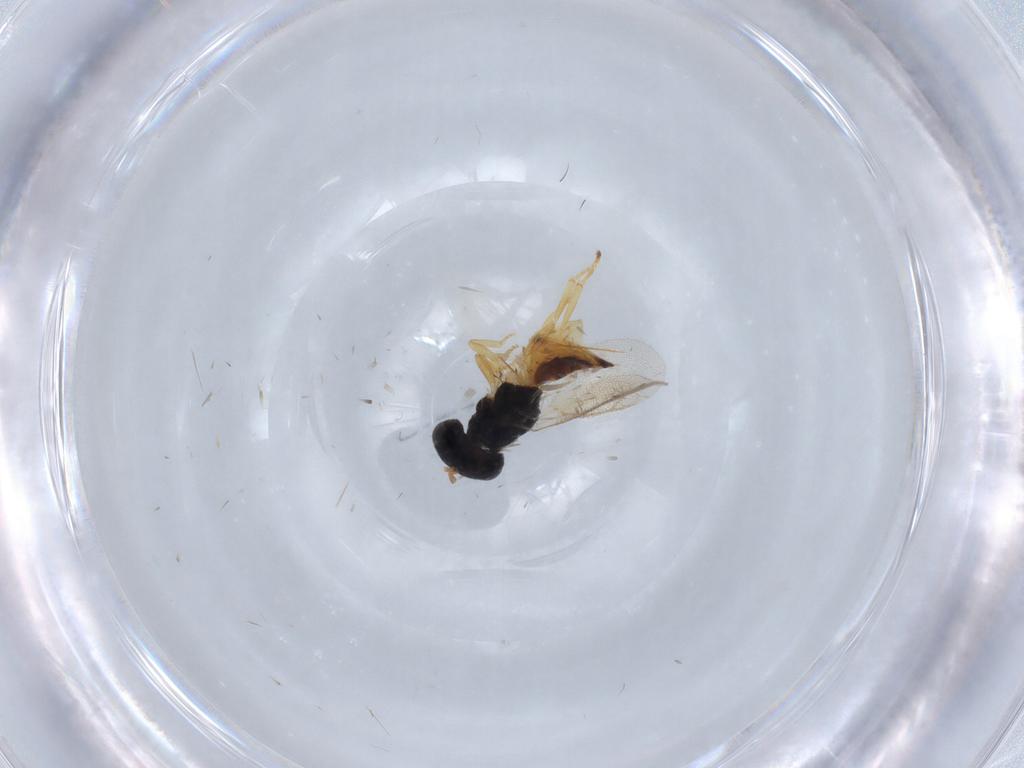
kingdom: Animalia
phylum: Arthropoda
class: Insecta
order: Hymenoptera
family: Pteromalidae
